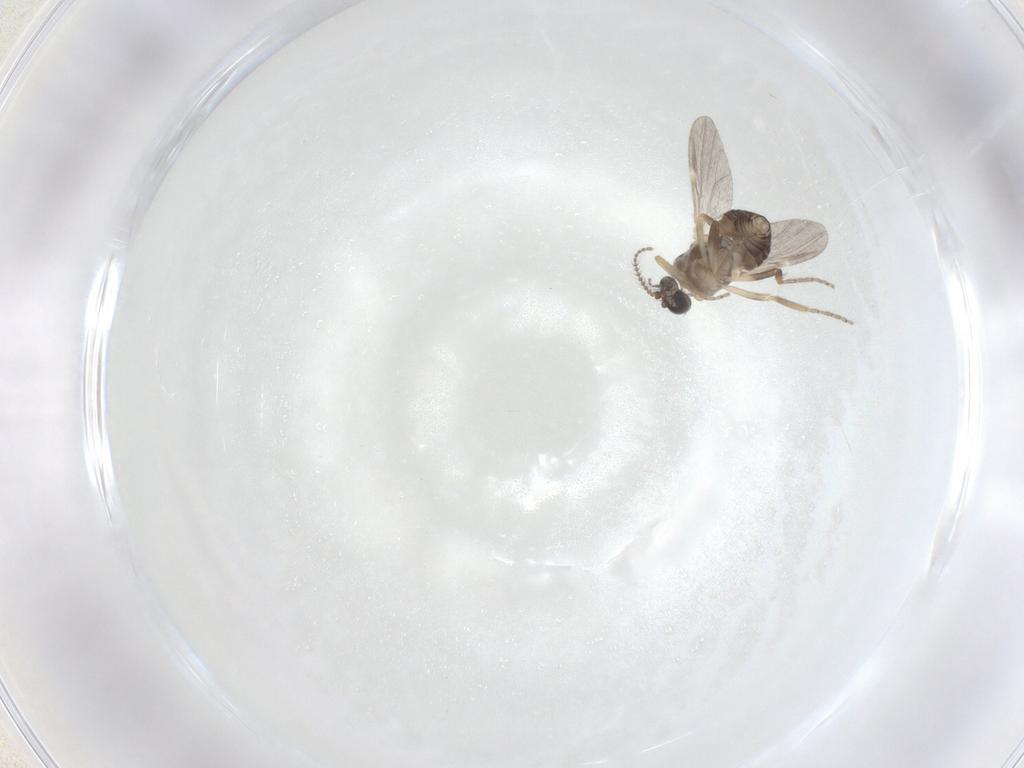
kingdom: Animalia
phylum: Arthropoda
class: Insecta
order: Diptera
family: Ceratopogonidae
